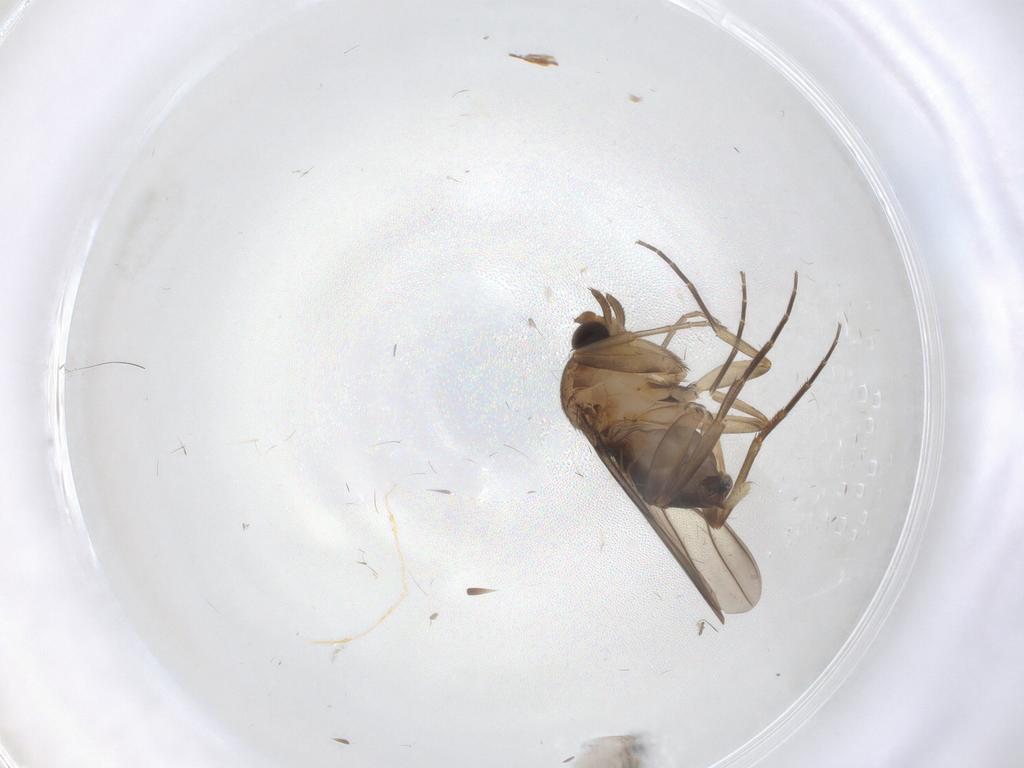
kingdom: Animalia
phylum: Arthropoda
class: Insecta
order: Diptera
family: Phoridae
